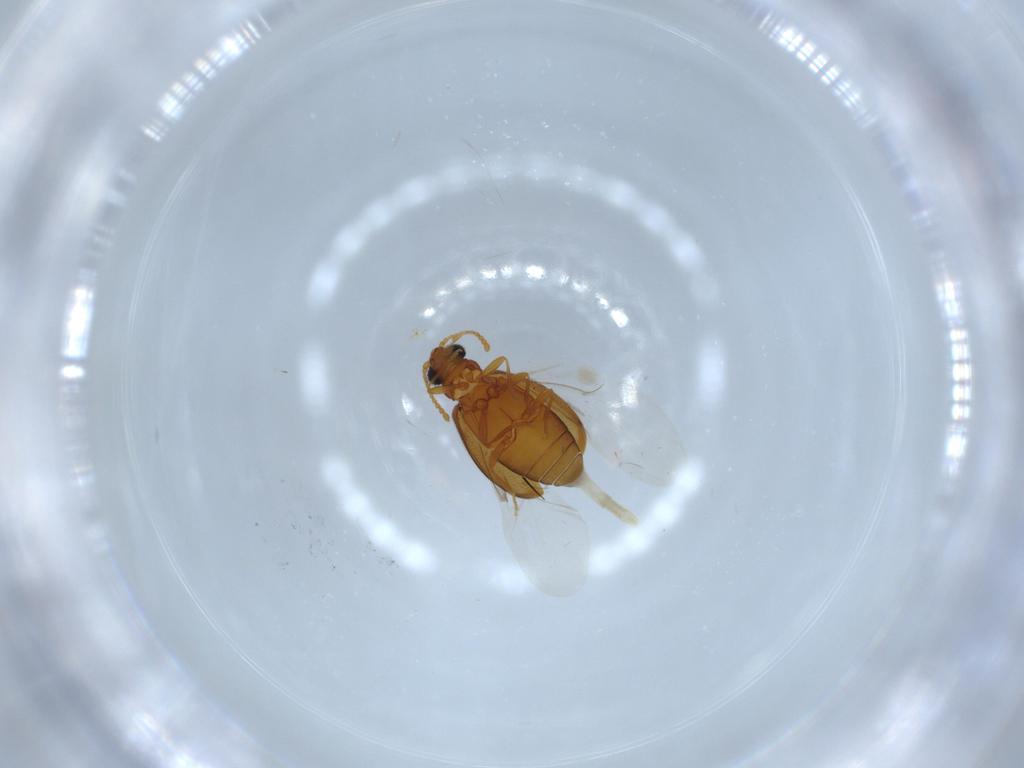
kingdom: Animalia
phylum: Arthropoda
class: Insecta
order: Coleoptera
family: Aderidae
